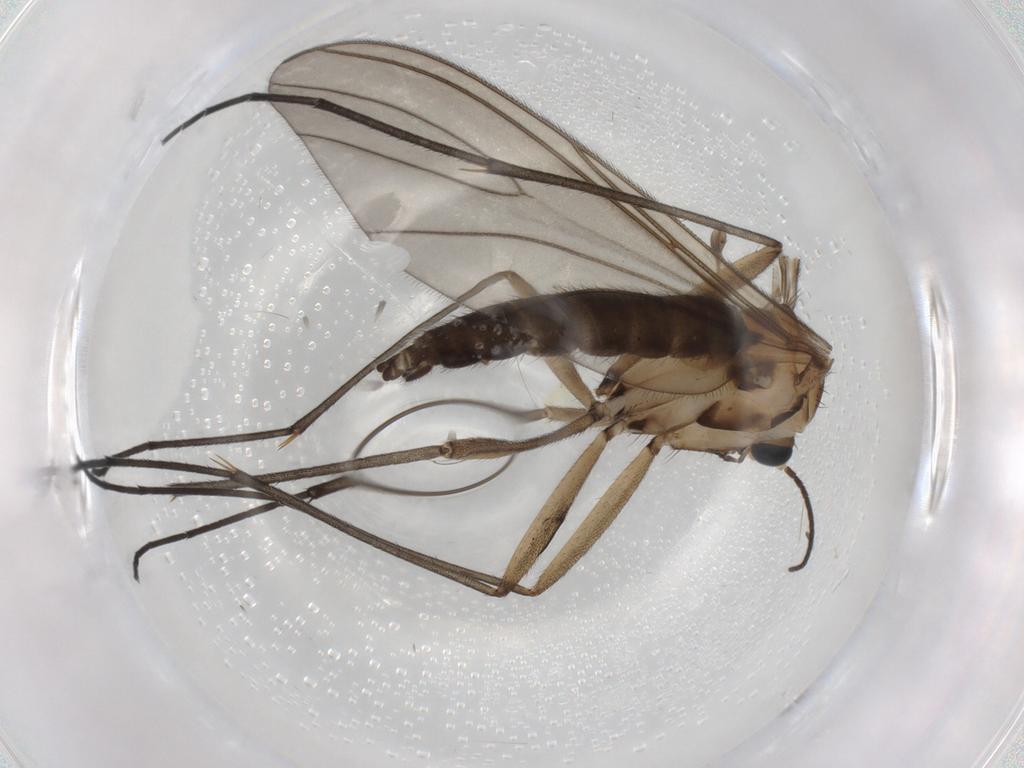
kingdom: Animalia
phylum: Arthropoda
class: Insecta
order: Diptera
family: Sciaridae
